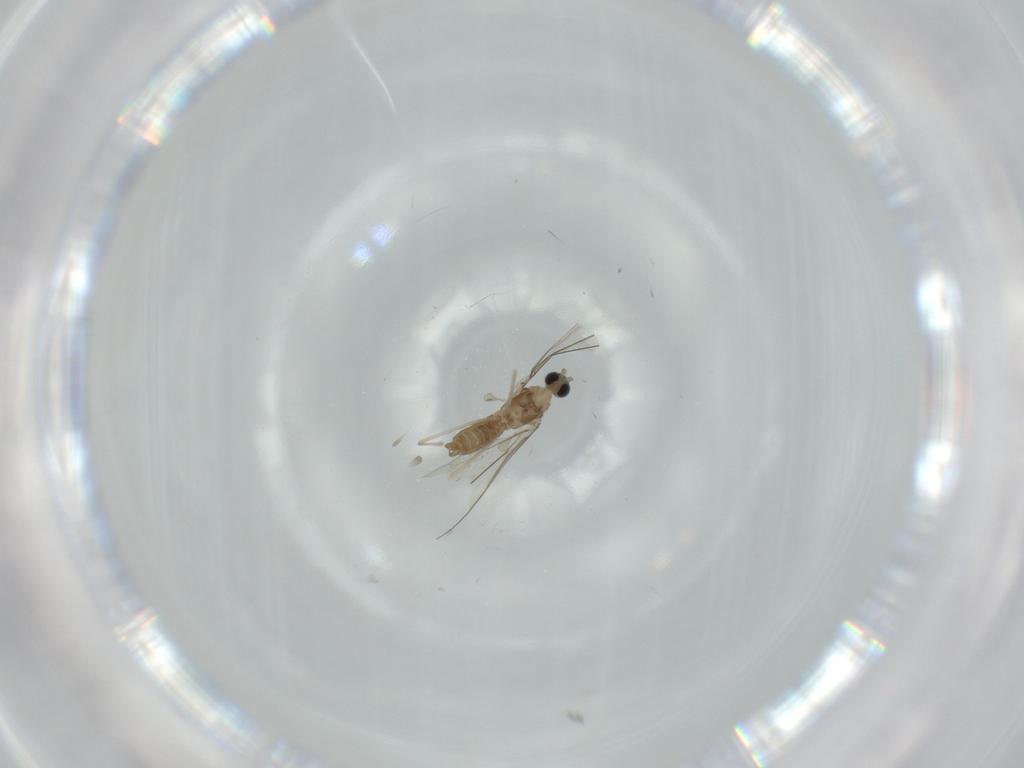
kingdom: Animalia
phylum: Arthropoda
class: Insecta
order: Diptera
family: Cecidomyiidae
